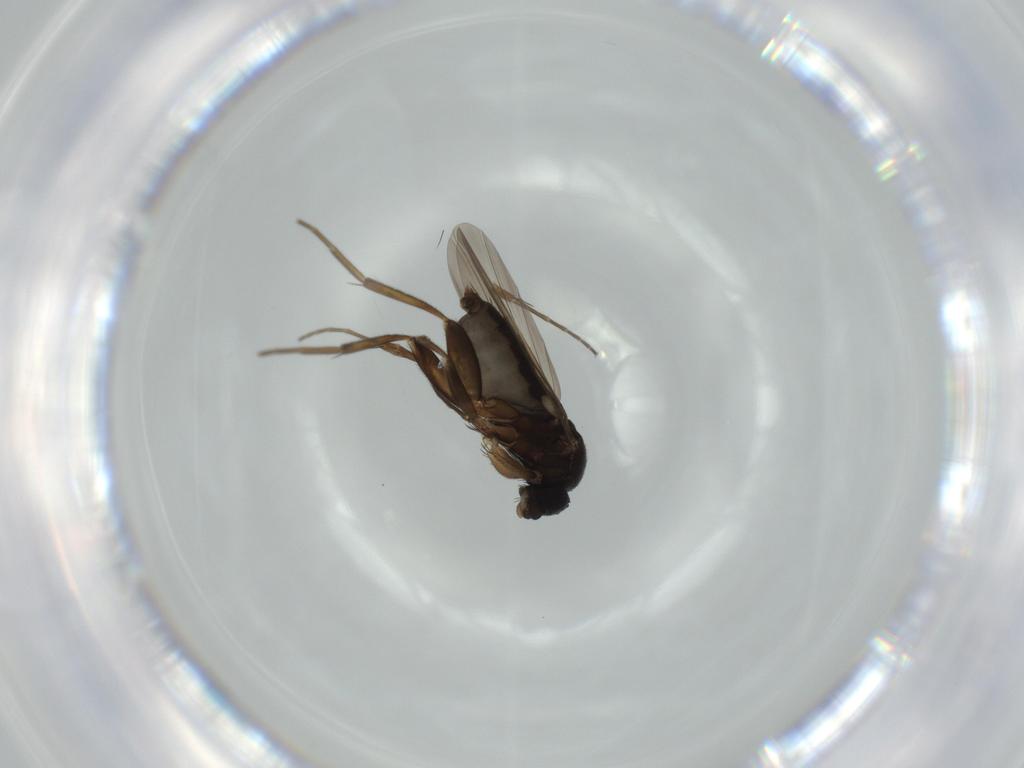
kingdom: Animalia
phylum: Arthropoda
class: Insecta
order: Diptera
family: Phoridae
